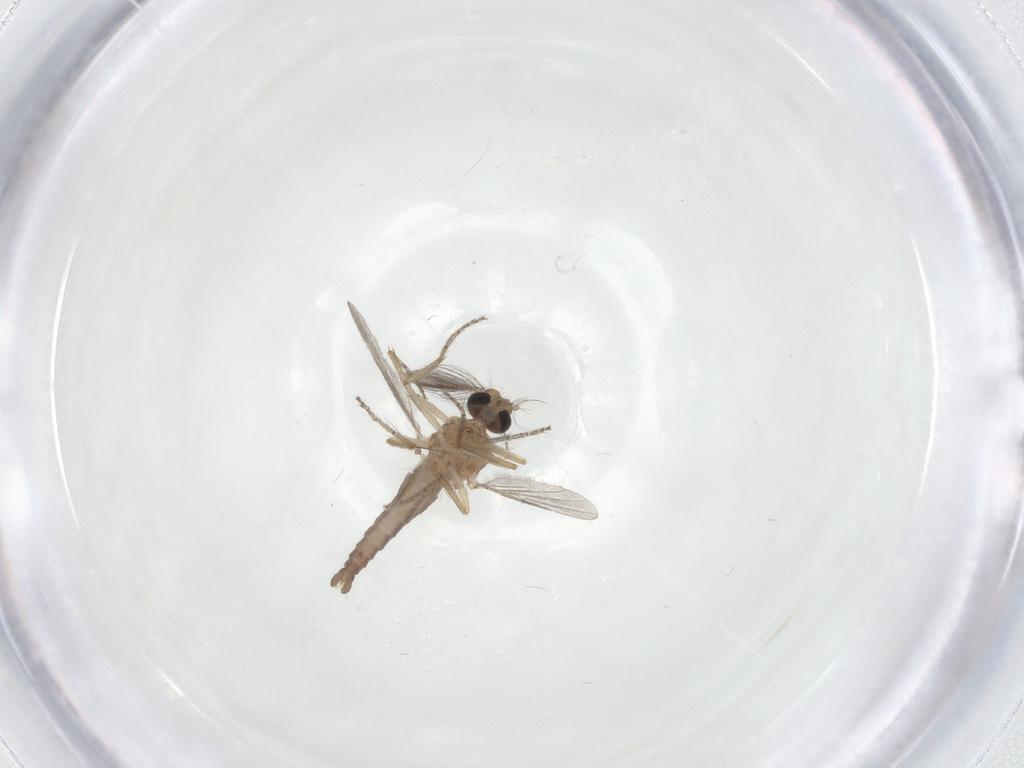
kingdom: Animalia
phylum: Arthropoda
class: Insecta
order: Diptera
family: Ceratopogonidae
